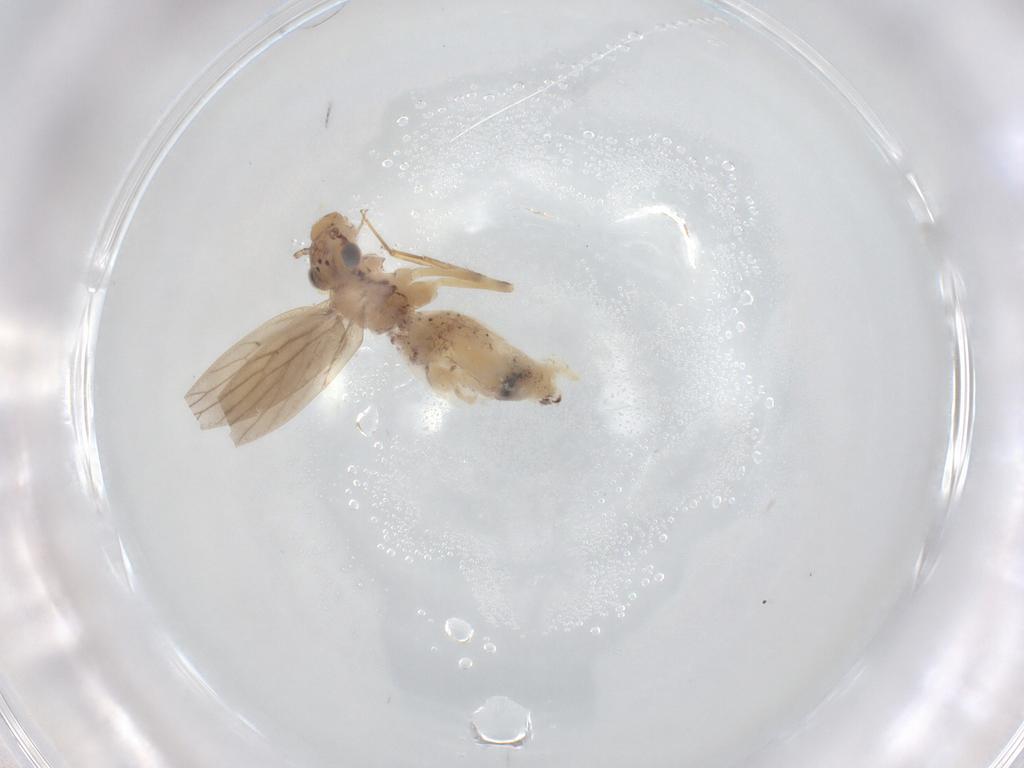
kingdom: Animalia
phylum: Arthropoda
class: Insecta
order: Psocodea
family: Lepidopsocidae
